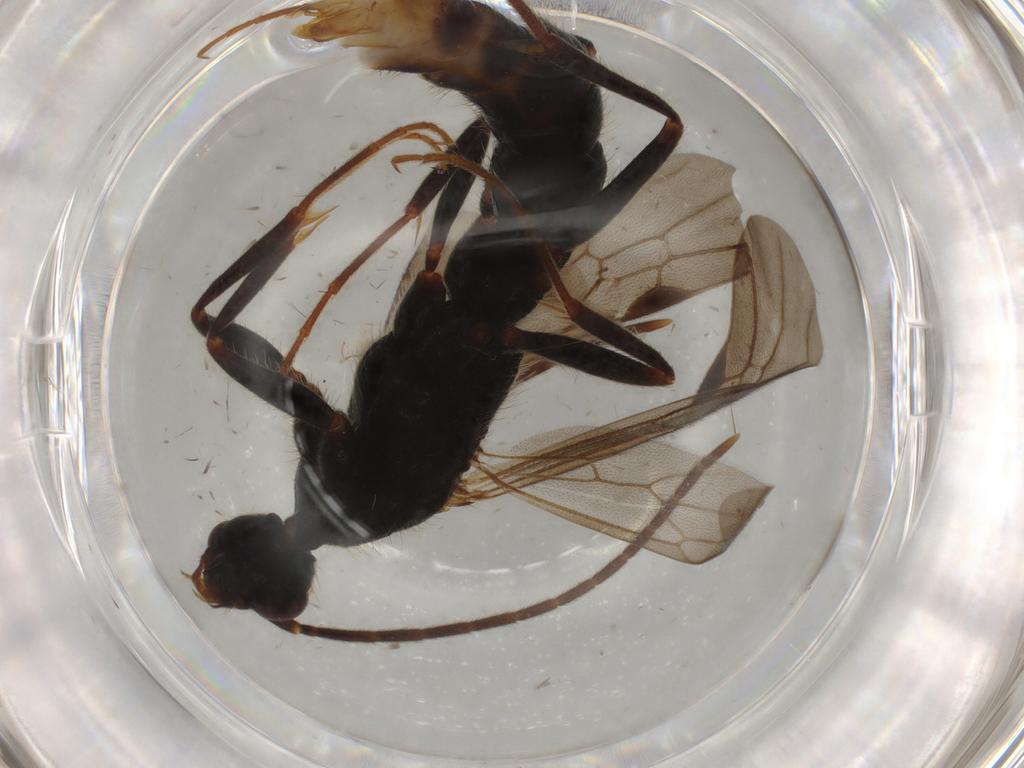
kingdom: Animalia
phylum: Arthropoda
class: Insecta
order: Hymenoptera
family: Formicidae
